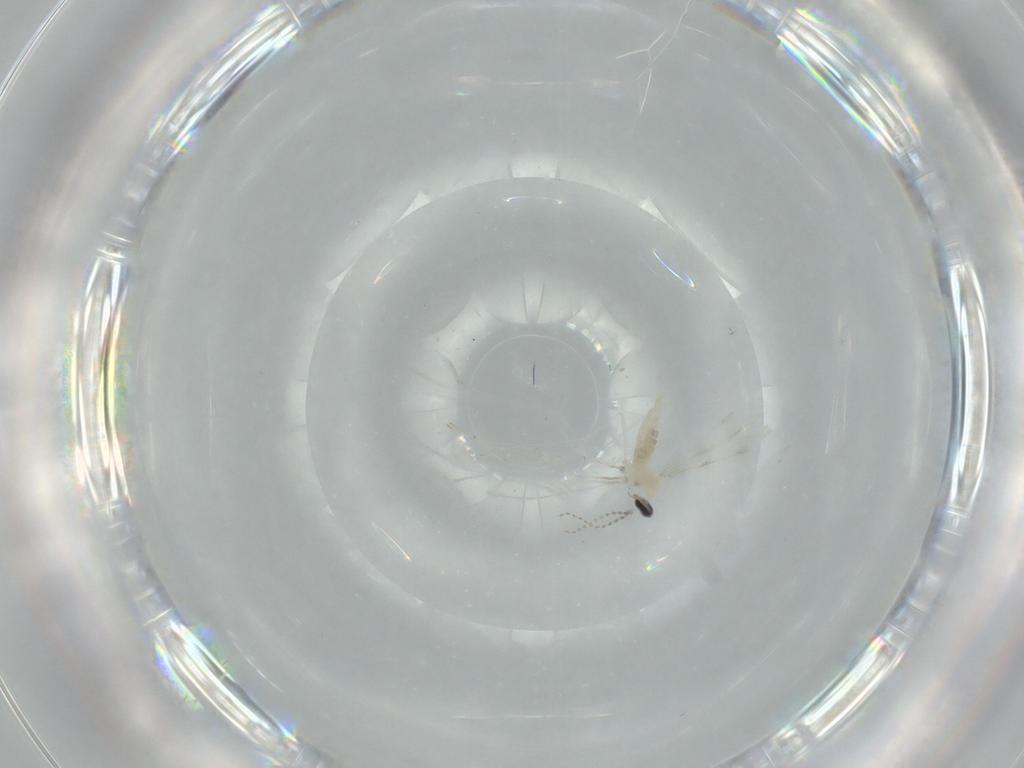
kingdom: Animalia
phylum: Arthropoda
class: Insecta
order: Diptera
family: Cecidomyiidae
